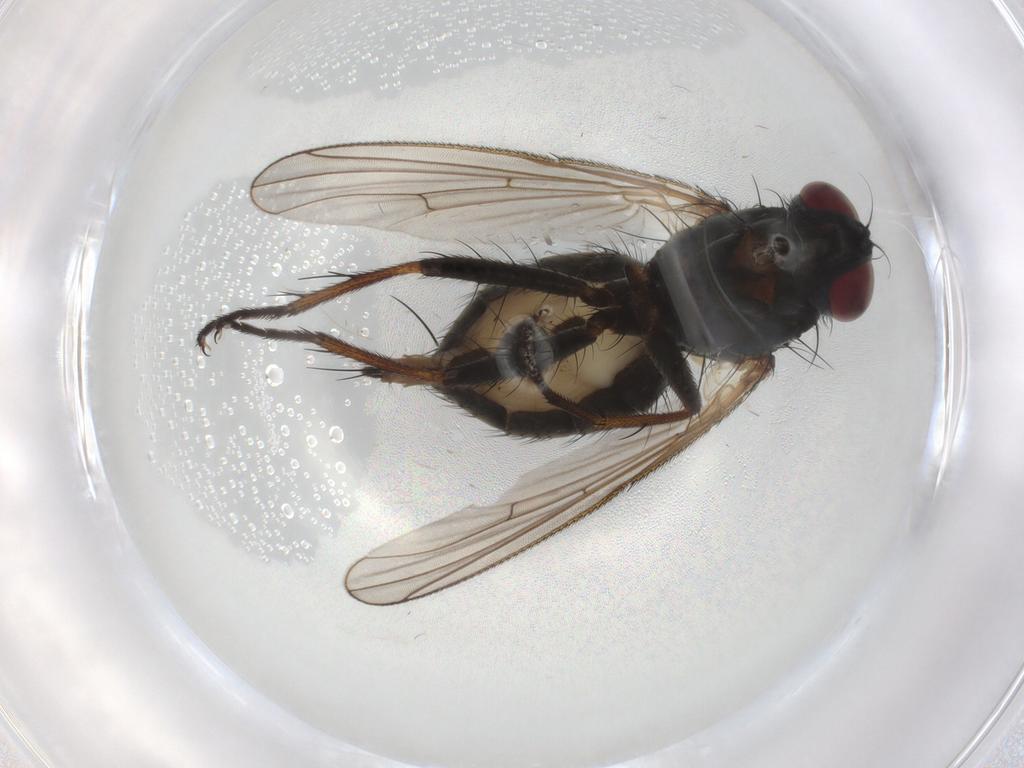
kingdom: Animalia
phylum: Arthropoda
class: Insecta
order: Diptera
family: Muscidae
